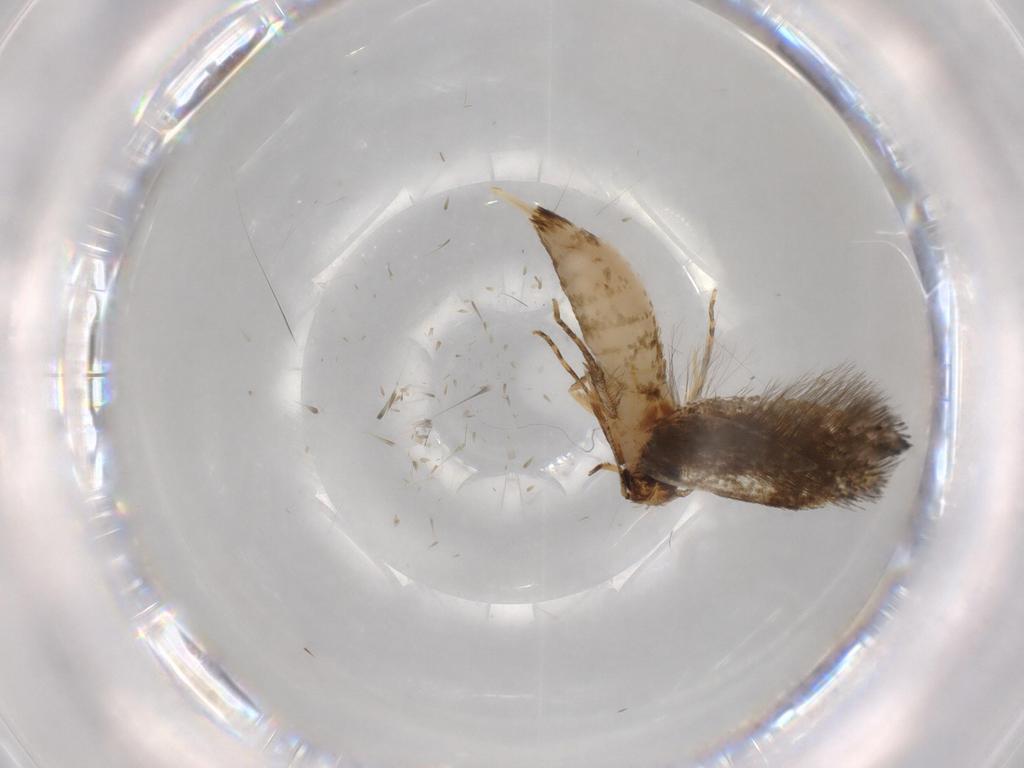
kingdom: Animalia
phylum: Arthropoda
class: Insecta
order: Lepidoptera
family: Tineidae
